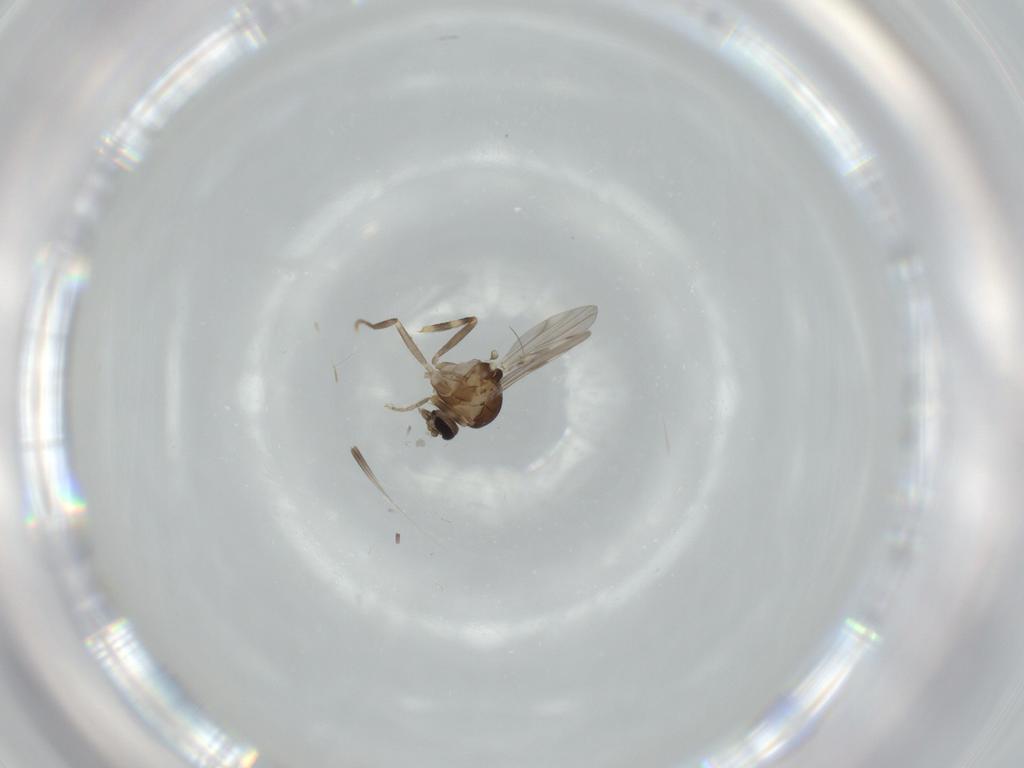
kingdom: Animalia
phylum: Arthropoda
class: Insecta
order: Diptera
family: Ceratopogonidae
